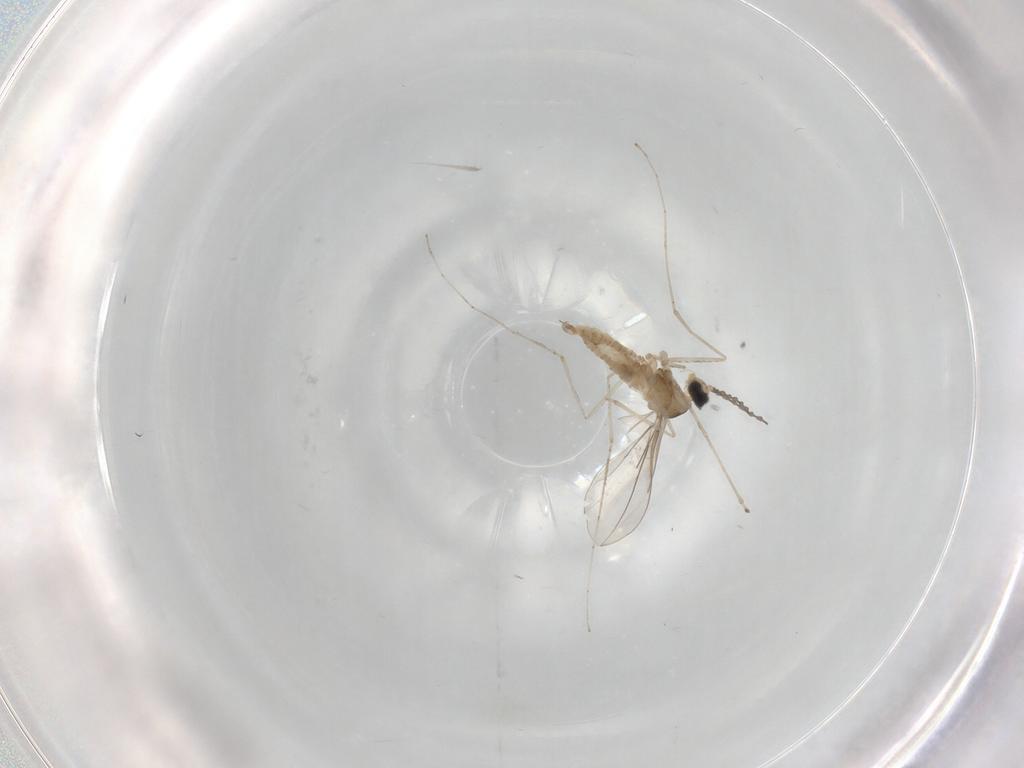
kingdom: Animalia
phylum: Arthropoda
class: Insecta
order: Diptera
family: Cecidomyiidae
